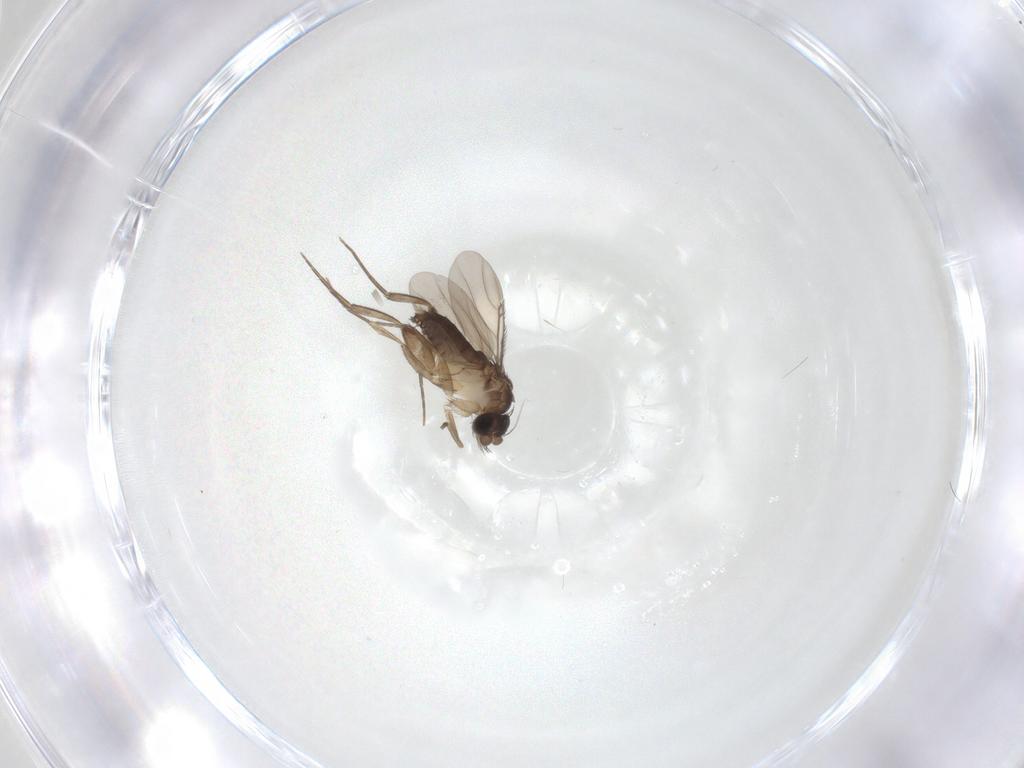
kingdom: Animalia
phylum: Arthropoda
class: Insecta
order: Diptera
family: Phoridae
